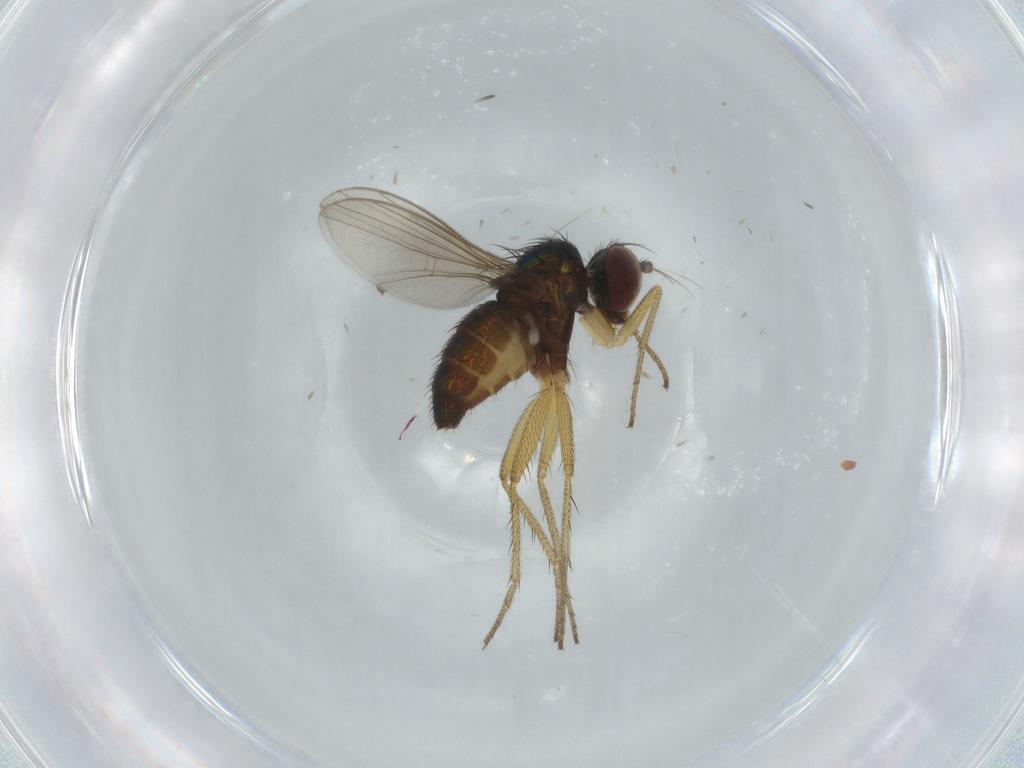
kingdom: Animalia
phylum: Arthropoda
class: Insecta
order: Diptera
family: Dolichopodidae
